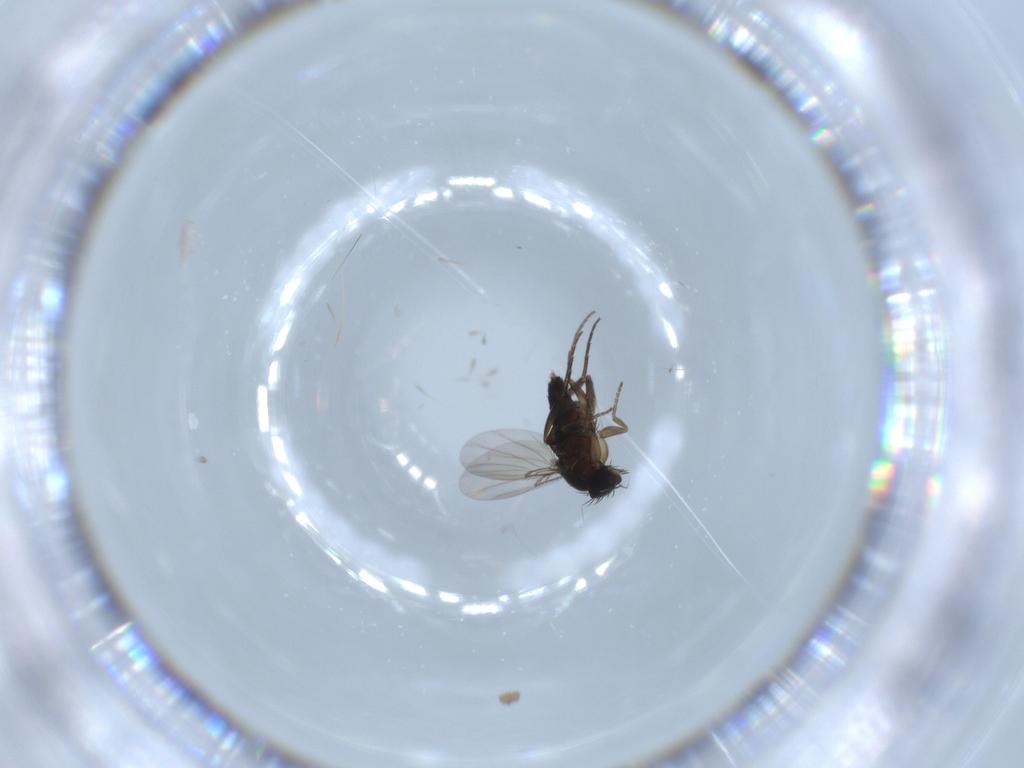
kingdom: Animalia
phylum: Arthropoda
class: Insecta
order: Diptera
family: Phoridae
